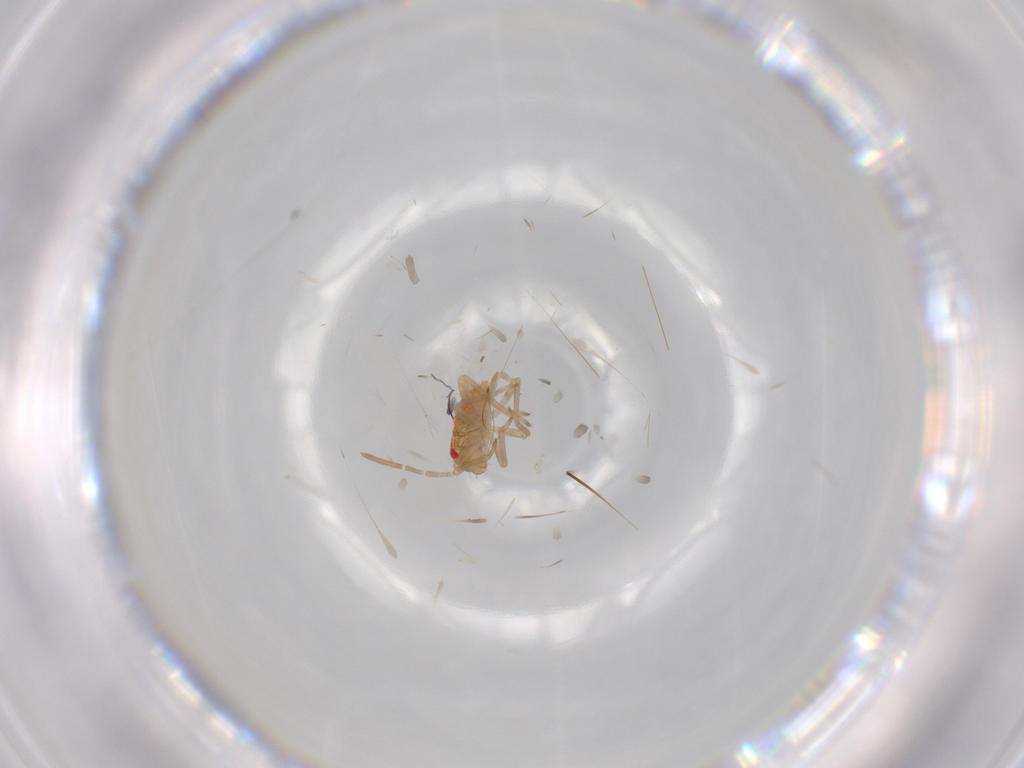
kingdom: Animalia
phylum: Arthropoda
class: Insecta
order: Hemiptera
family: Miridae
